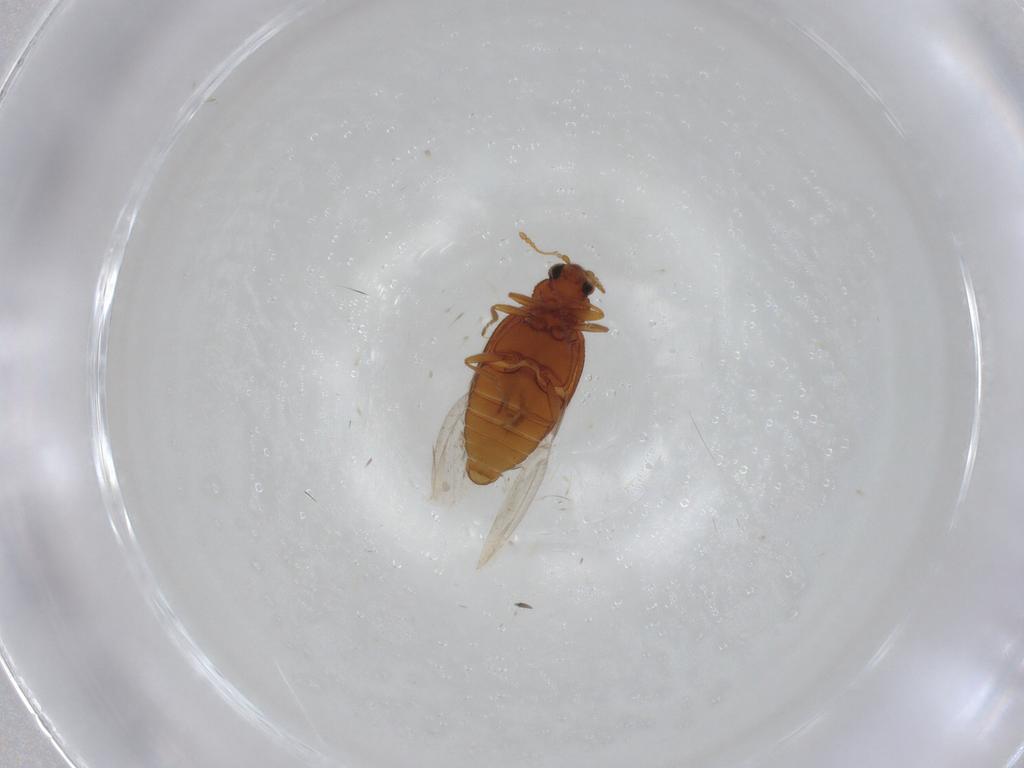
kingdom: Animalia
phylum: Arthropoda
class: Insecta
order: Coleoptera
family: Latridiidae
